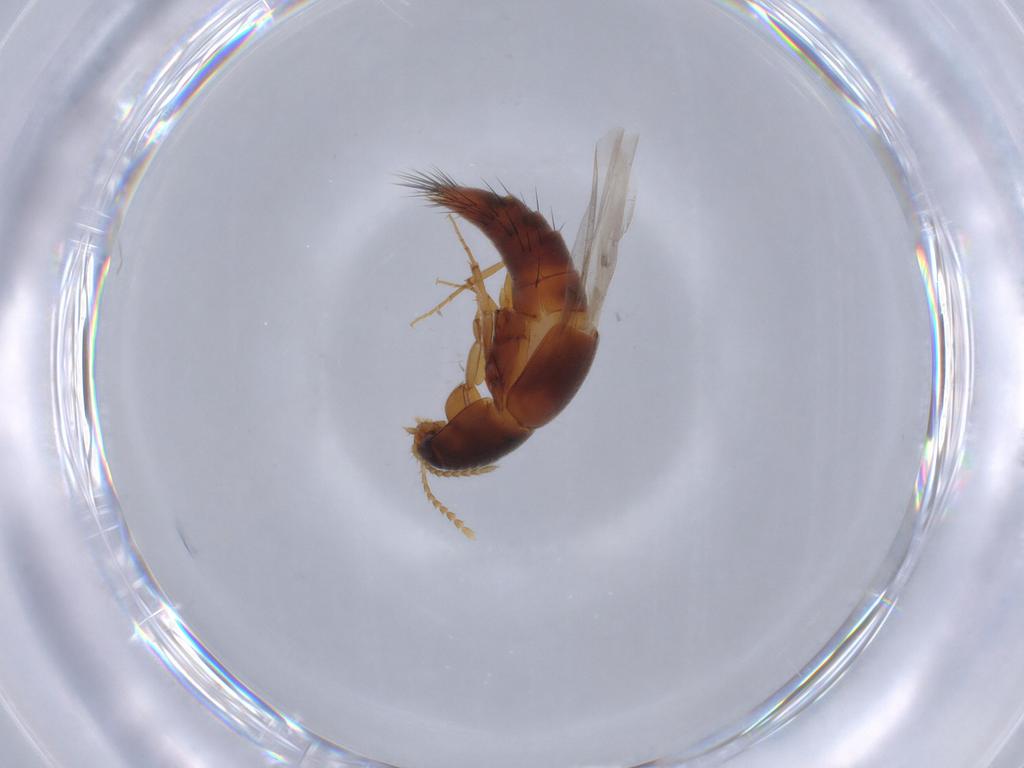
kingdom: Animalia
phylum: Arthropoda
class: Insecta
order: Coleoptera
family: Staphylinidae
